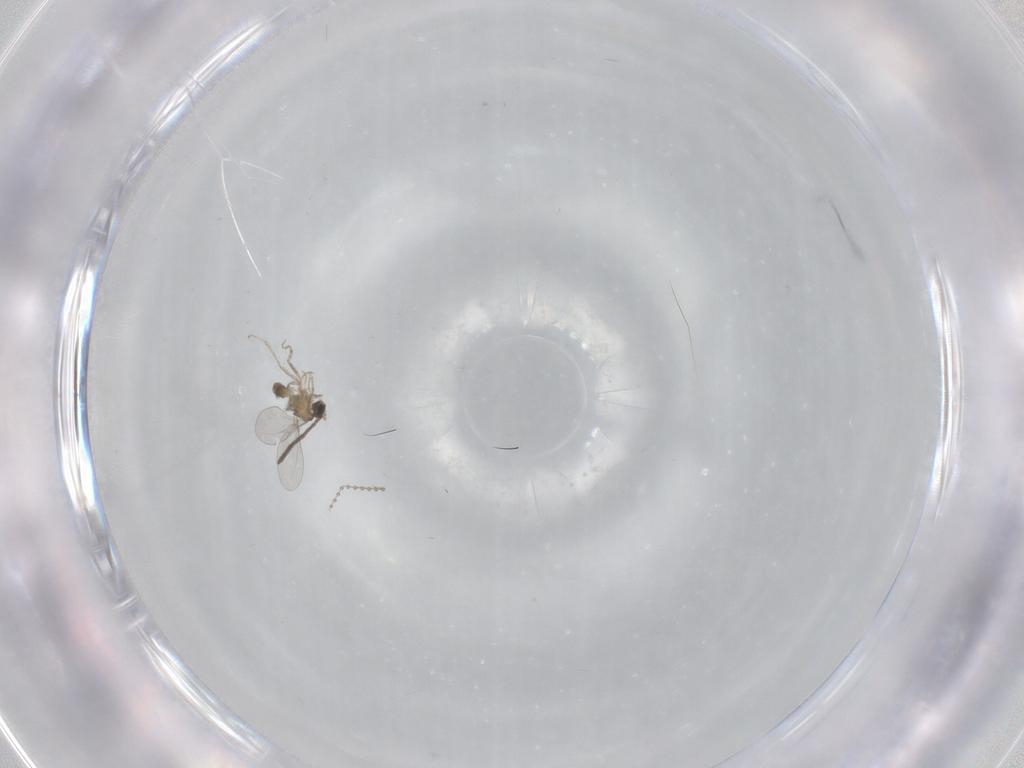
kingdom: Animalia
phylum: Arthropoda
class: Insecta
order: Diptera
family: Cecidomyiidae
